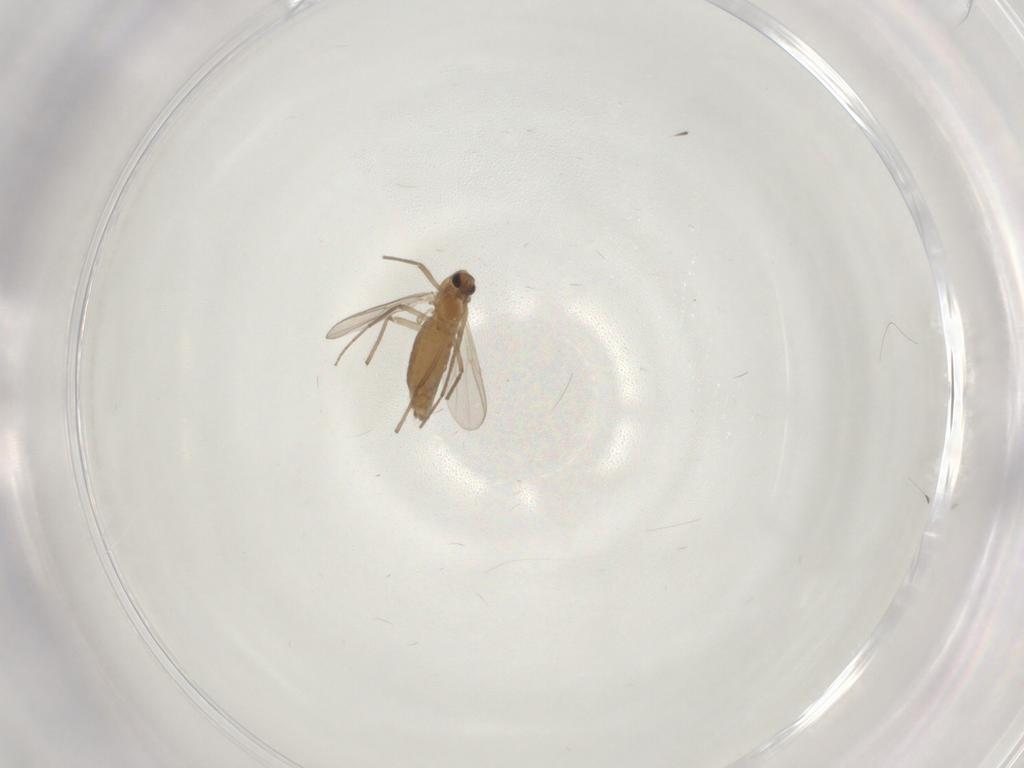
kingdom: Animalia
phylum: Arthropoda
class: Insecta
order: Diptera
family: Chironomidae
